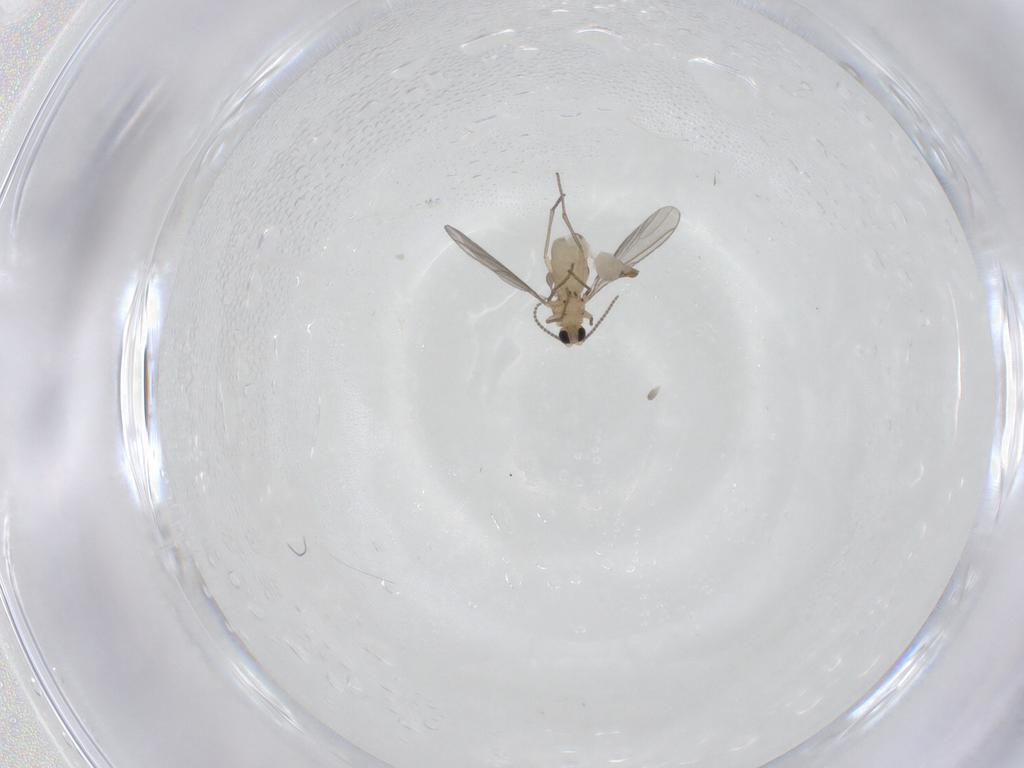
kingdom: Animalia
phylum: Arthropoda
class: Insecta
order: Diptera
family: Sciaridae
